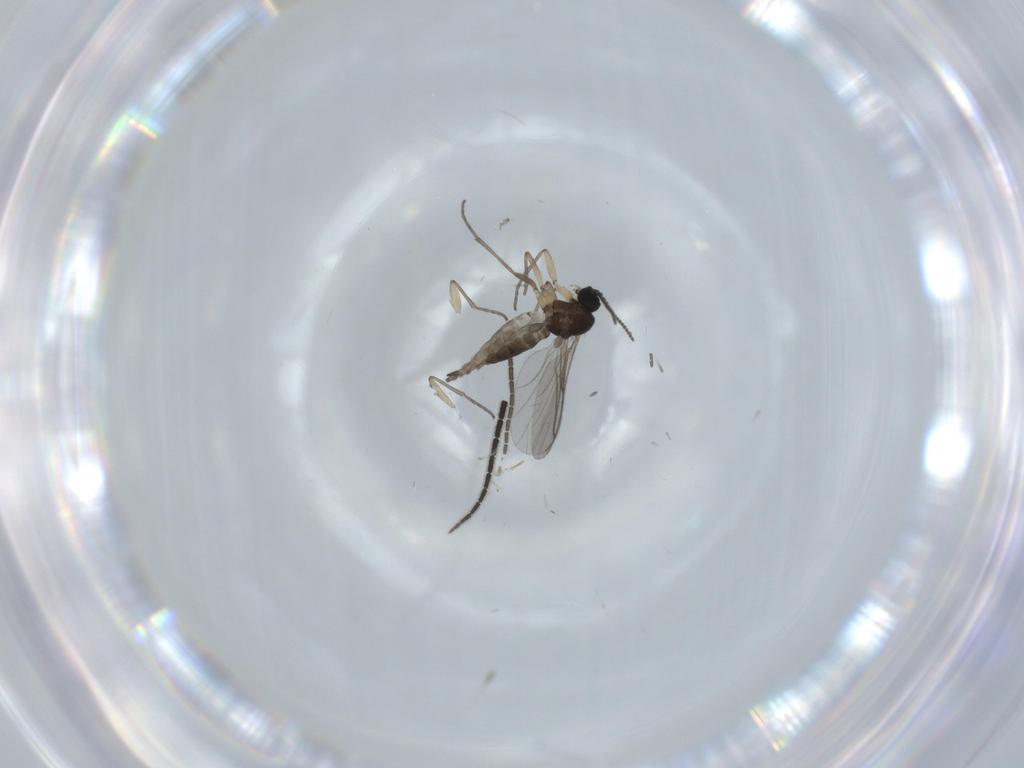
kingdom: Animalia
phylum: Arthropoda
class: Insecta
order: Diptera
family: Sciaridae
